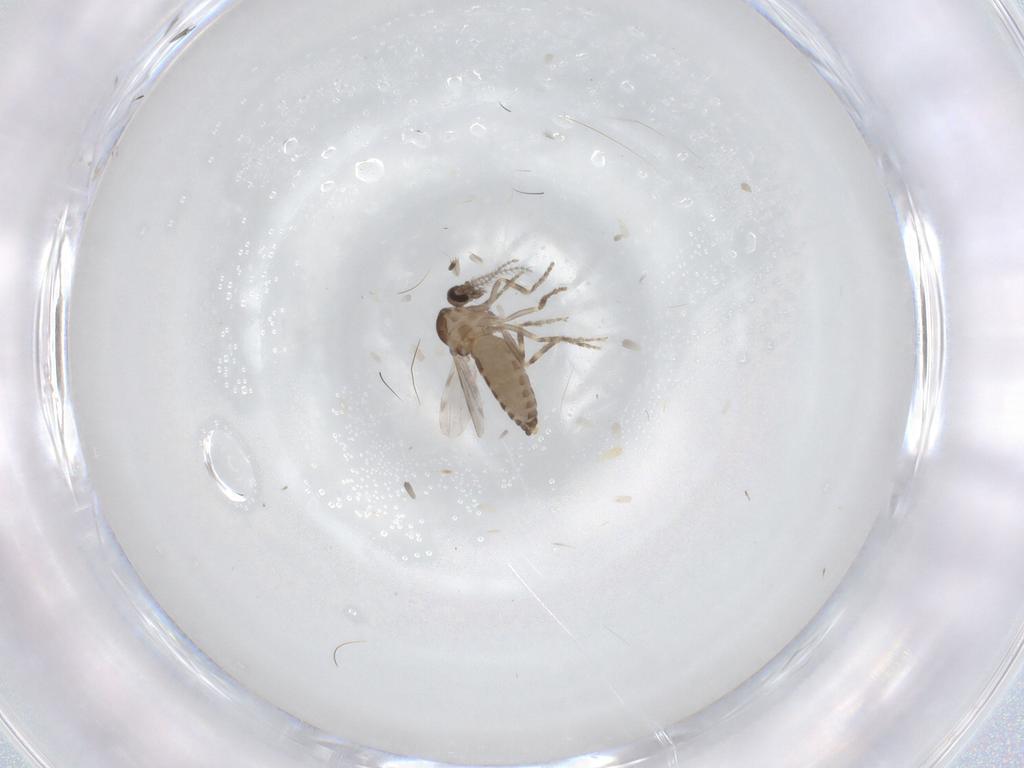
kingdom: Animalia
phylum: Arthropoda
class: Insecta
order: Diptera
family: Ceratopogonidae
